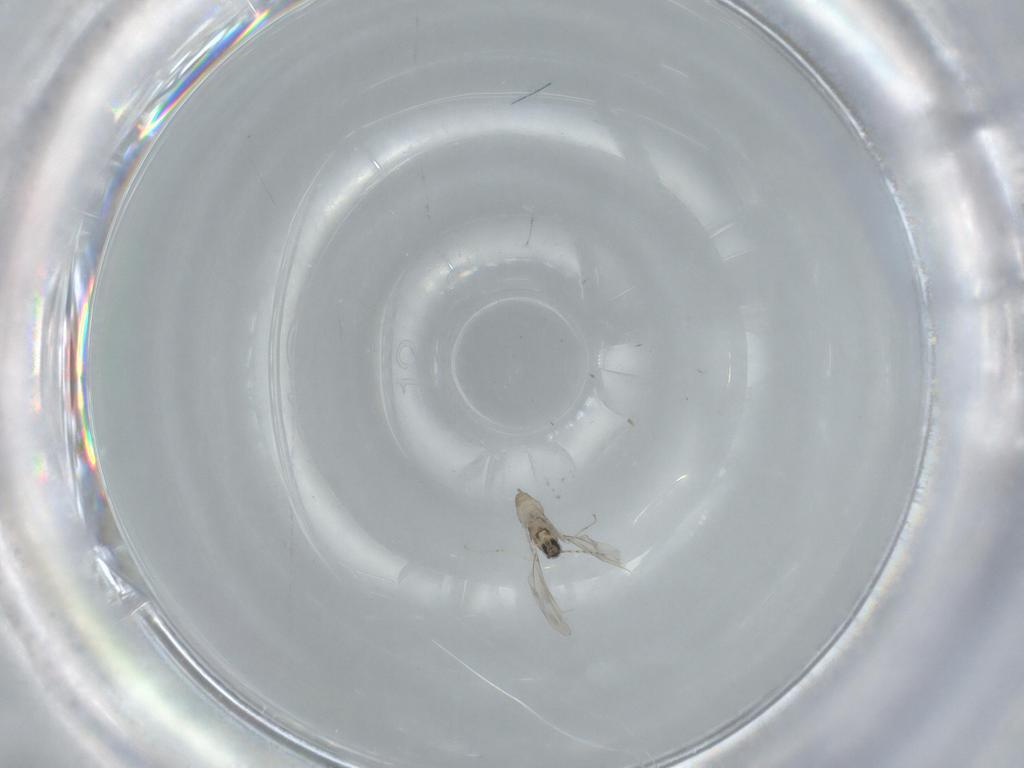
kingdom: Animalia
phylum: Arthropoda
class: Insecta
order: Diptera
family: Cecidomyiidae
